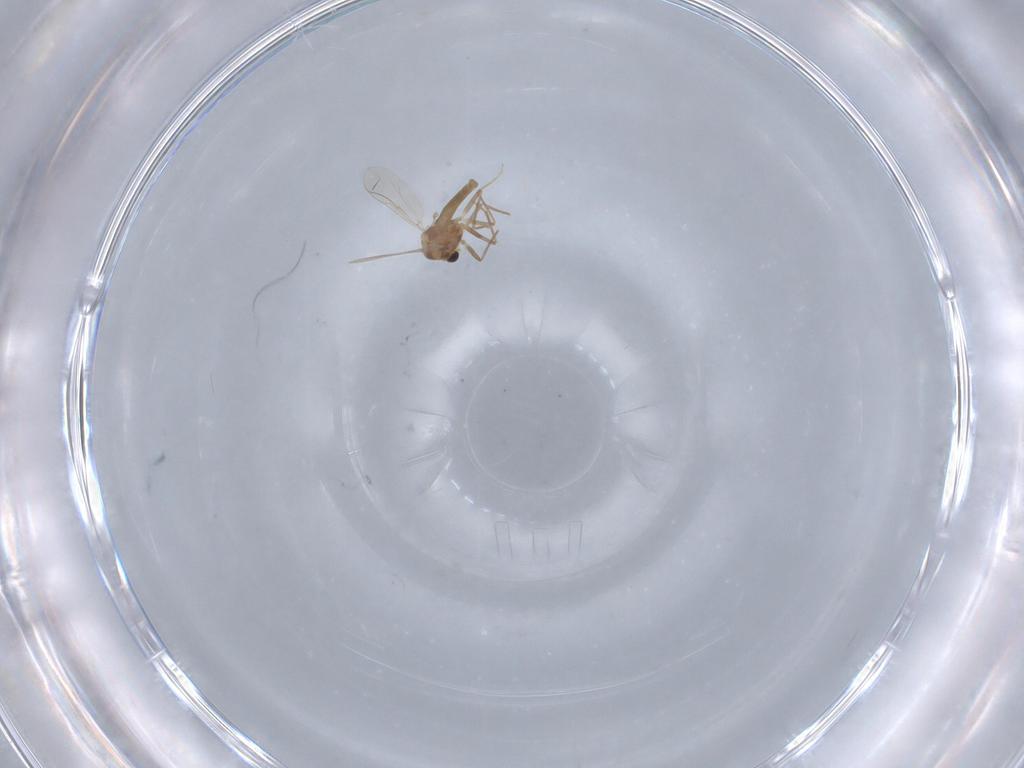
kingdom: Animalia
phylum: Arthropoda
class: Insecta
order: Diptera
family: Chironomidae
